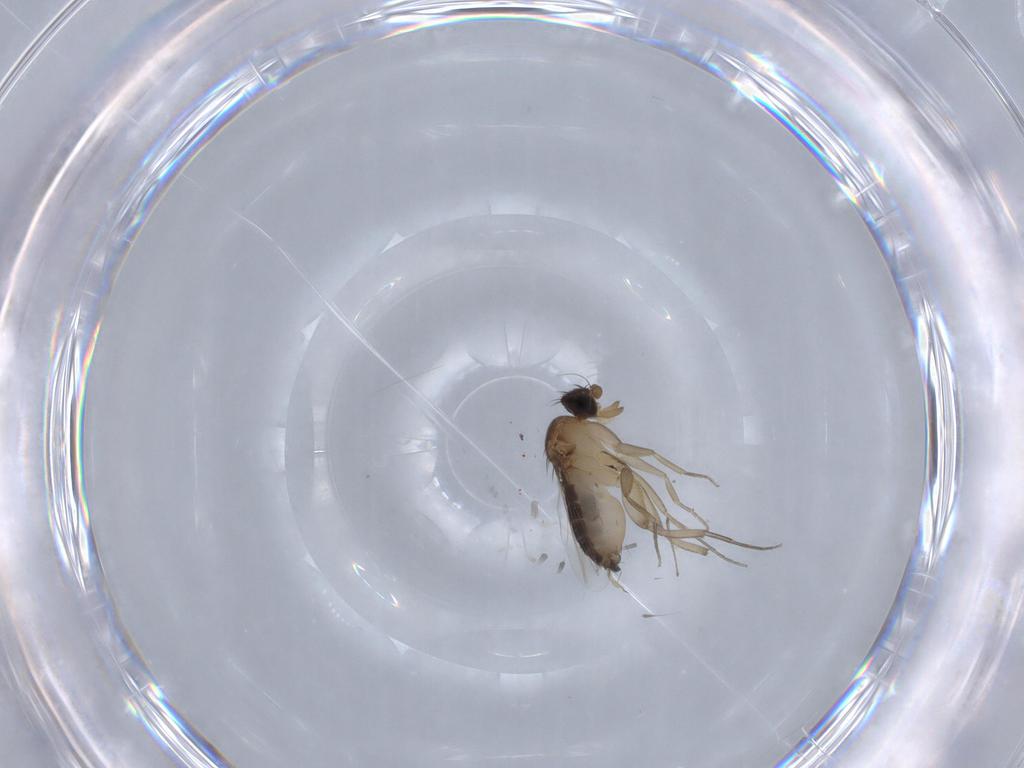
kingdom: Animalia
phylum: Arthropoda
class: Insecta
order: Diptera
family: Chironomidae
